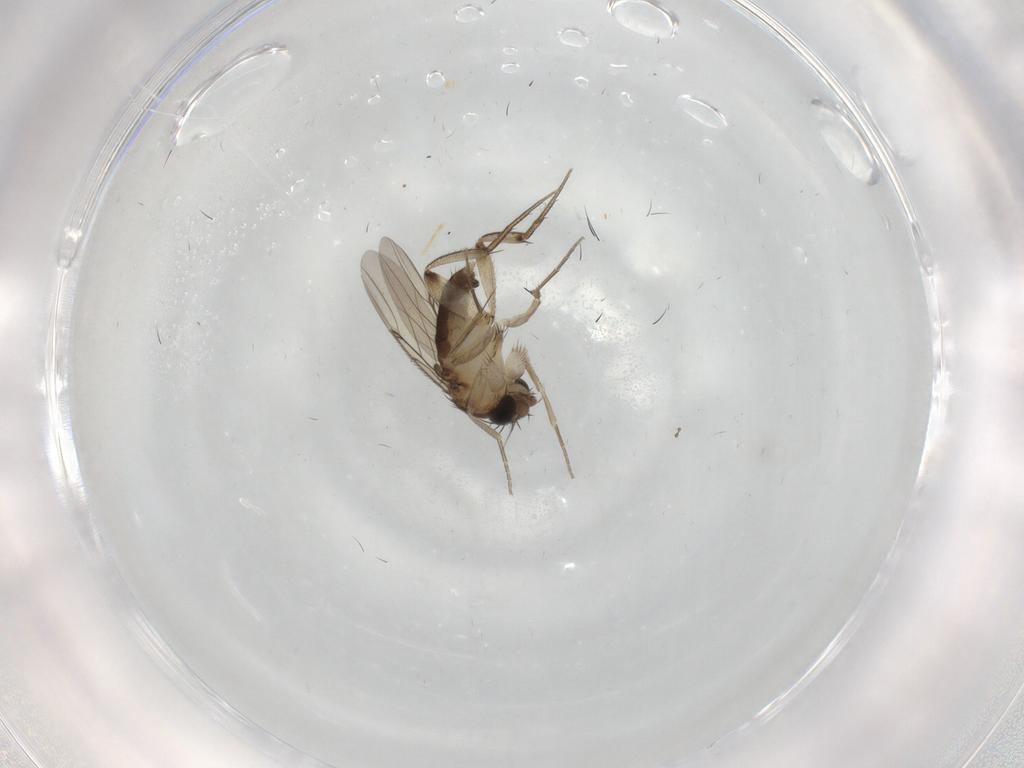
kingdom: Animalia
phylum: Arthropoda
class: Insecta
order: Diptera
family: Phoridae
